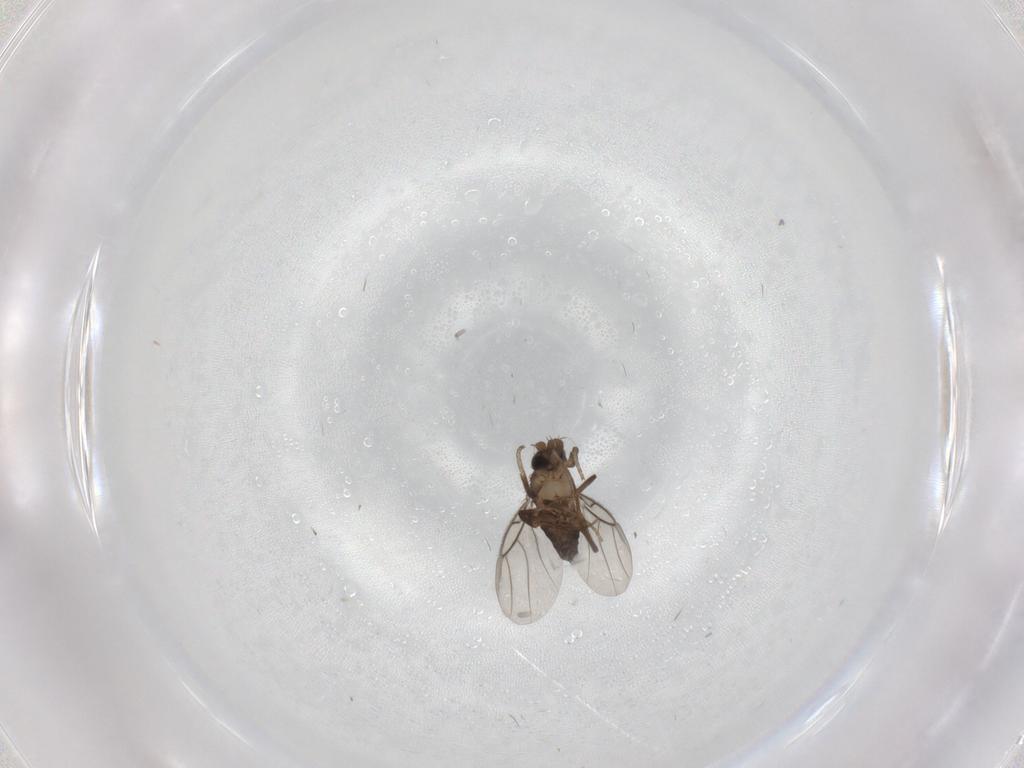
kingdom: Animalia
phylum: Arthropoda
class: Insecta
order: Diptera
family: Phoridae
